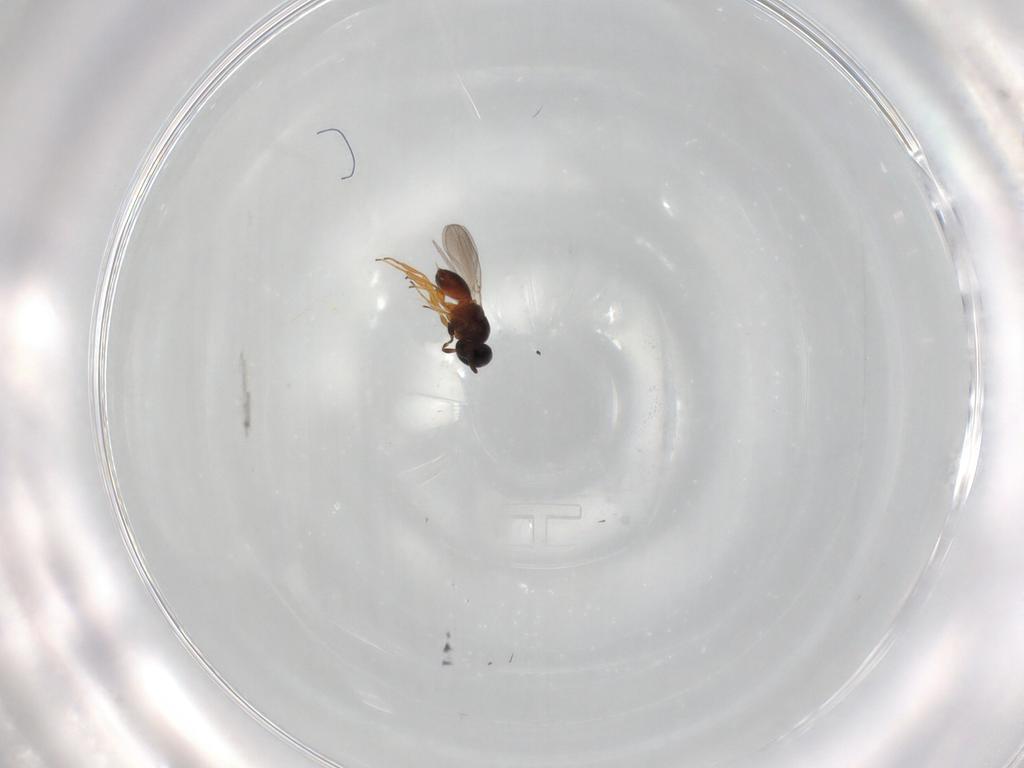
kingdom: Animalia
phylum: Arthropoda
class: Insecta
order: Hymenoptera
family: Platygastridae
